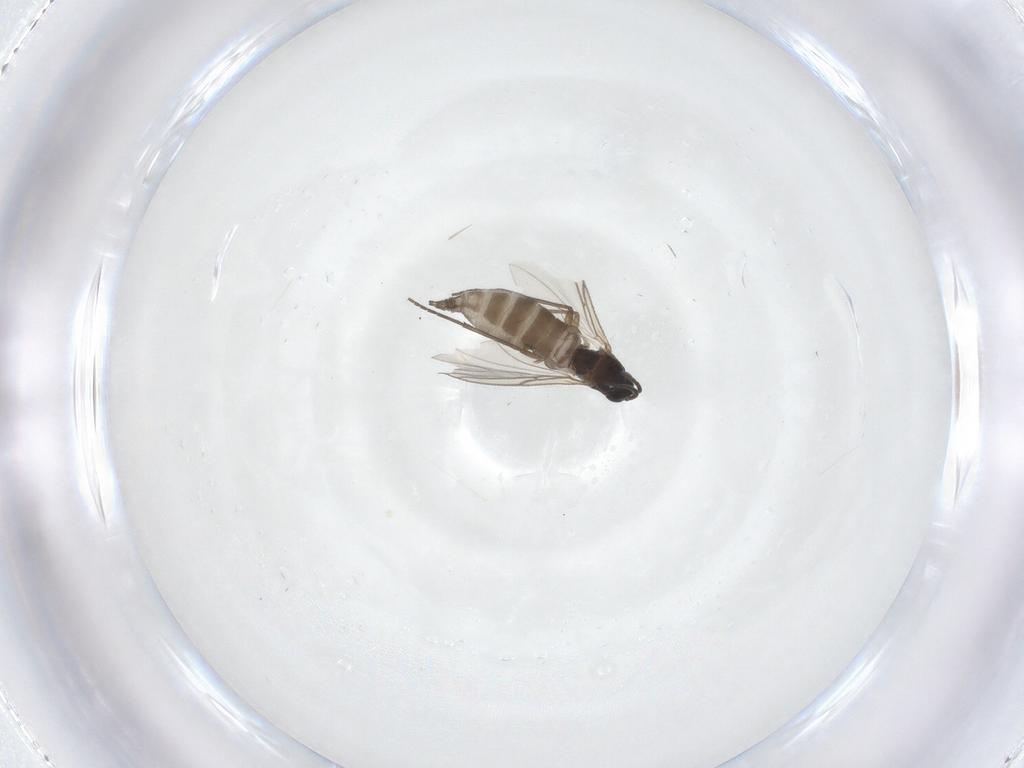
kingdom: Animalia
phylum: Arthropoda
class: Insecta
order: Diptera
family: Sciaridae
